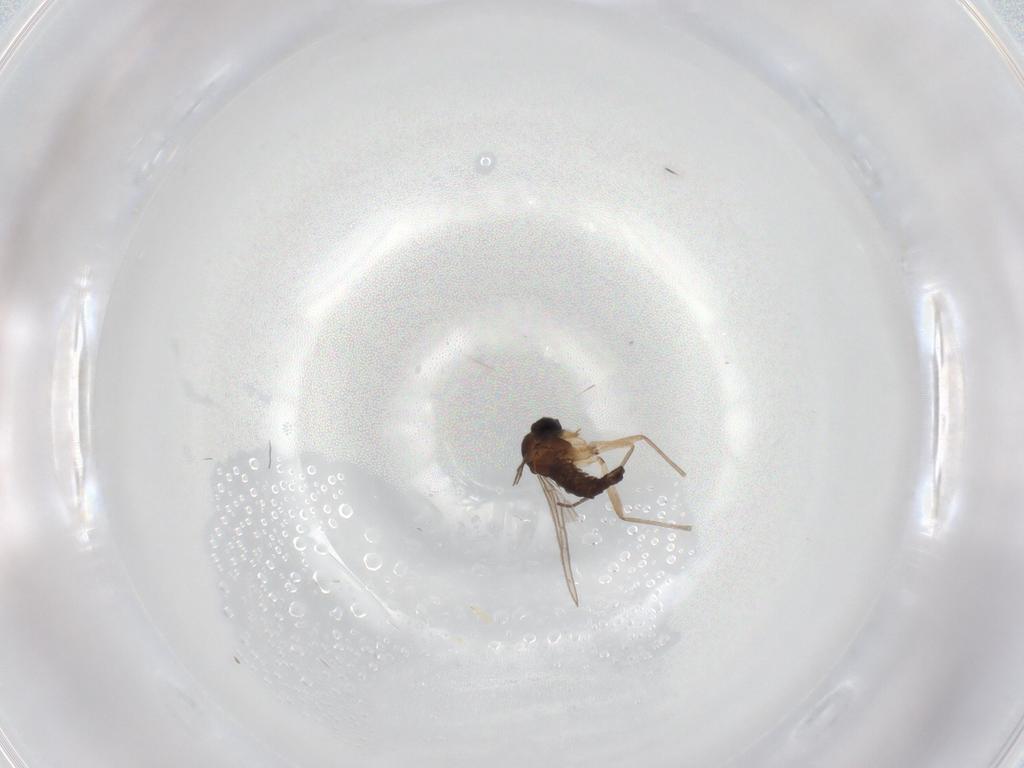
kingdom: Animalia
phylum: Arthropoda
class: Insecta
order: Diptera
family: Sciaridae
